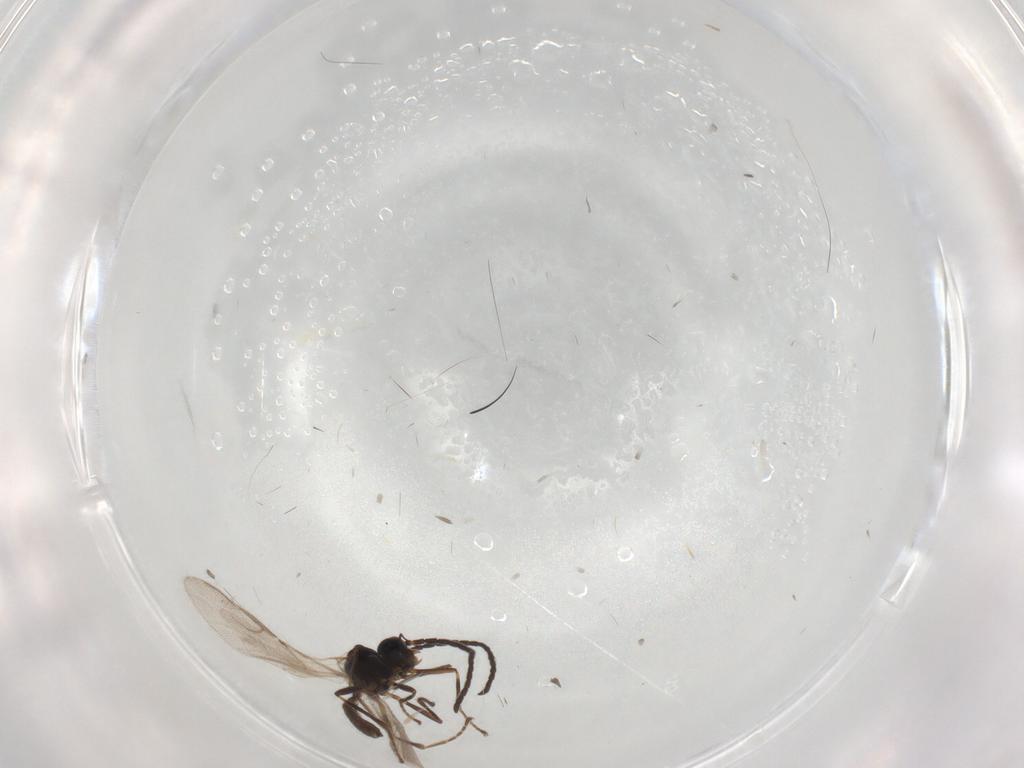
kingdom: Animalia
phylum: Arthropoda
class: Insecta
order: Hymenoptera
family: Braconidae
